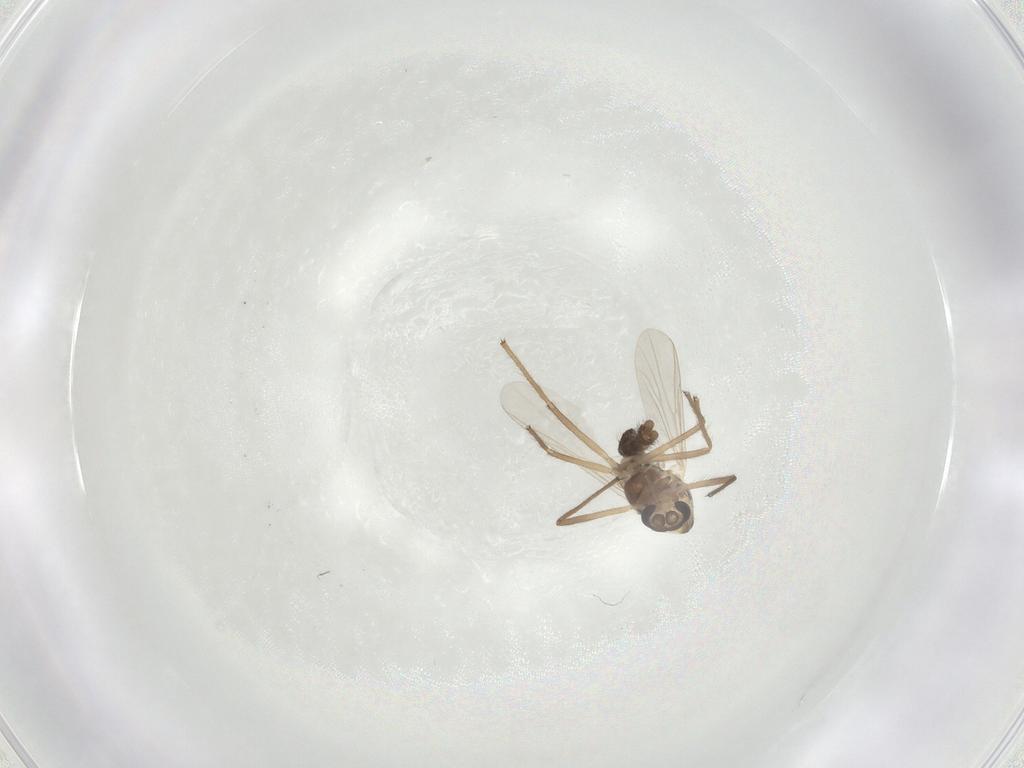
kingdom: Animalia
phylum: Arthropoda
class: Insecta
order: Diptera
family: Chironomidae
